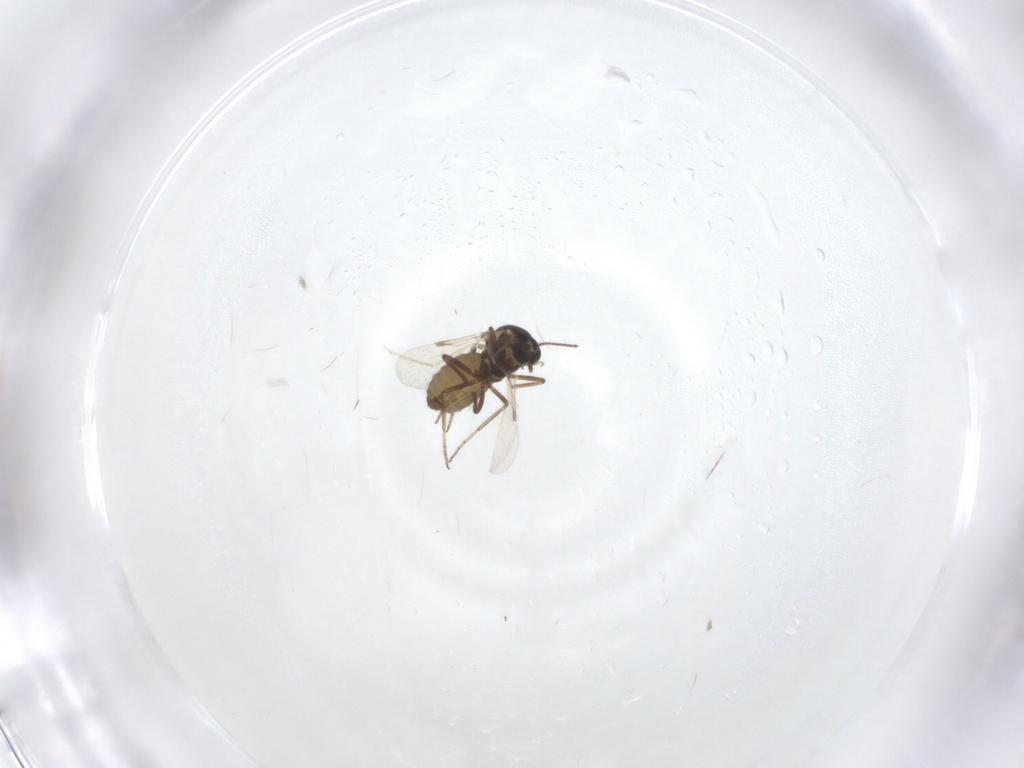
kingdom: Animalia
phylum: Arthropoda
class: Insecta
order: Diptera
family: Ceratopogonidae
